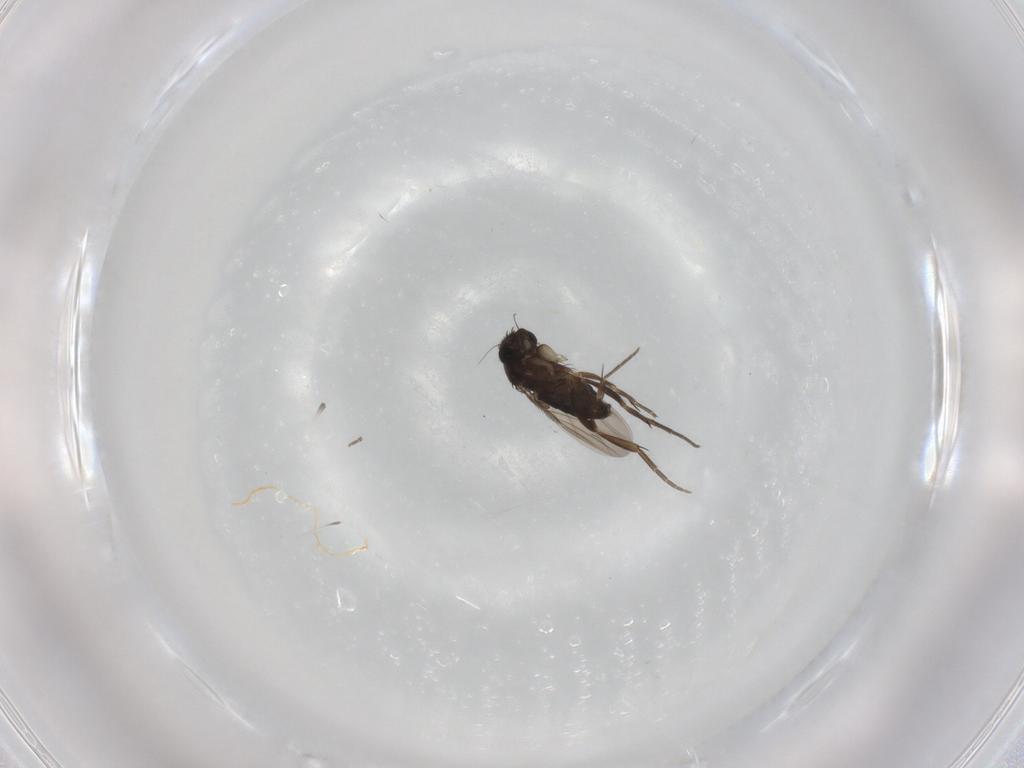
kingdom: Animalia
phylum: Arthropoda
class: Insecta
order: Diptera
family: Phoridae
